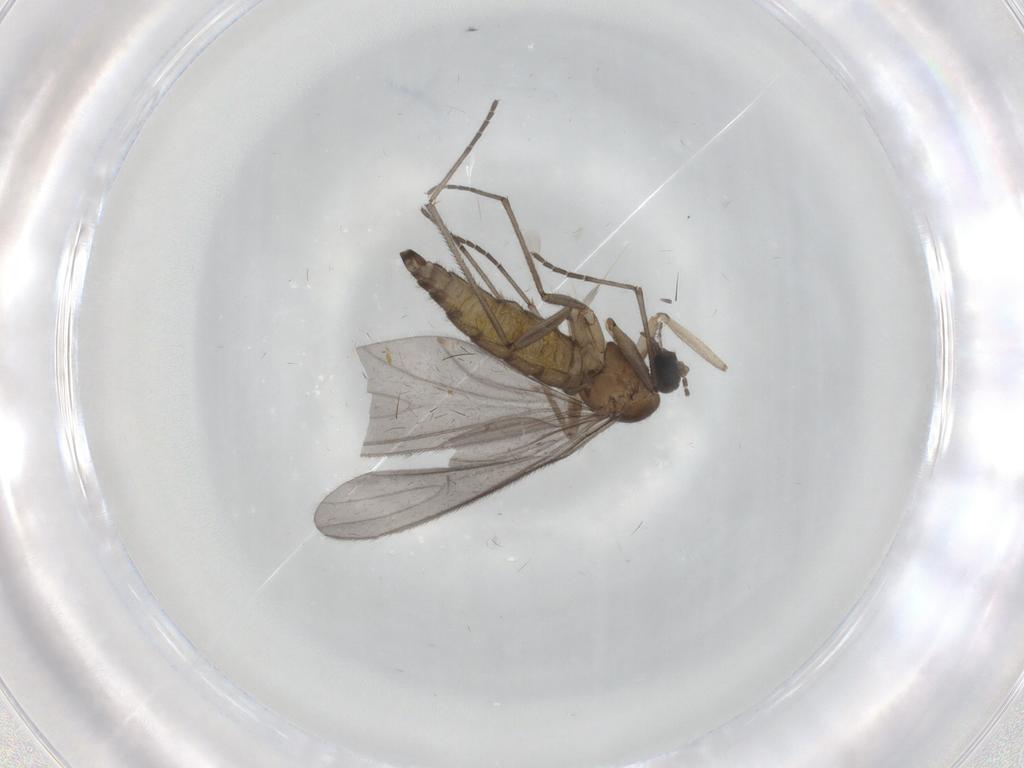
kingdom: Animalia
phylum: Arthropoda
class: Insecta
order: Diptera
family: Sciaridae
